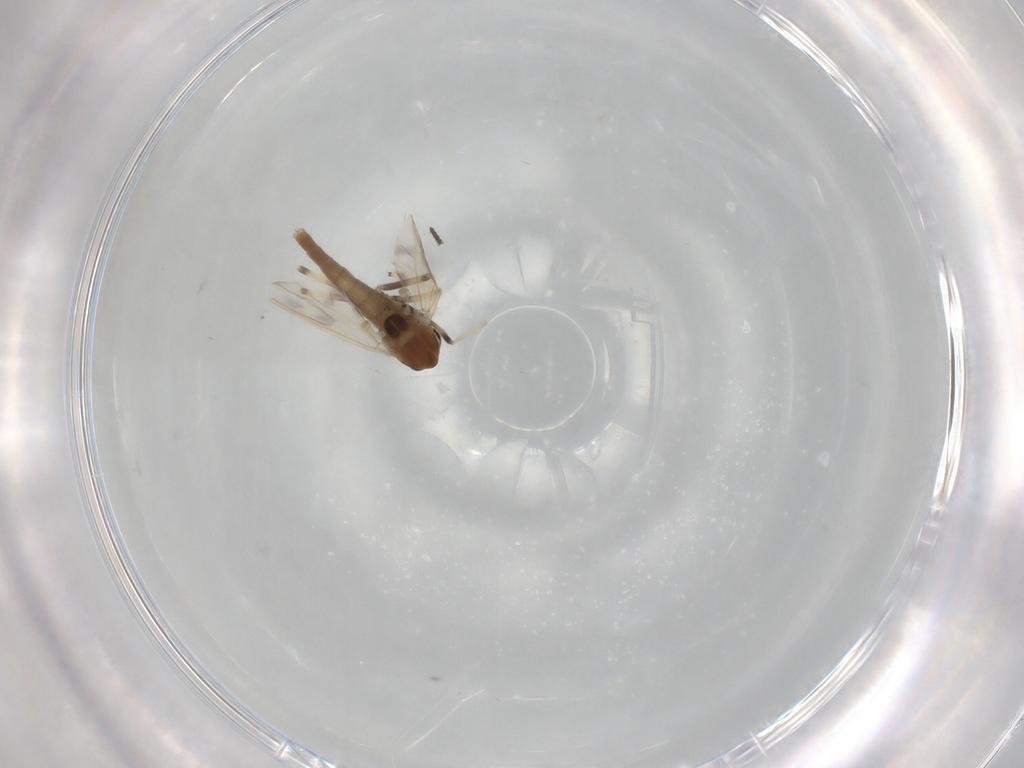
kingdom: Animalia
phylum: Arthropoda
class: Insecta
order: Diptera
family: Chironomidae
